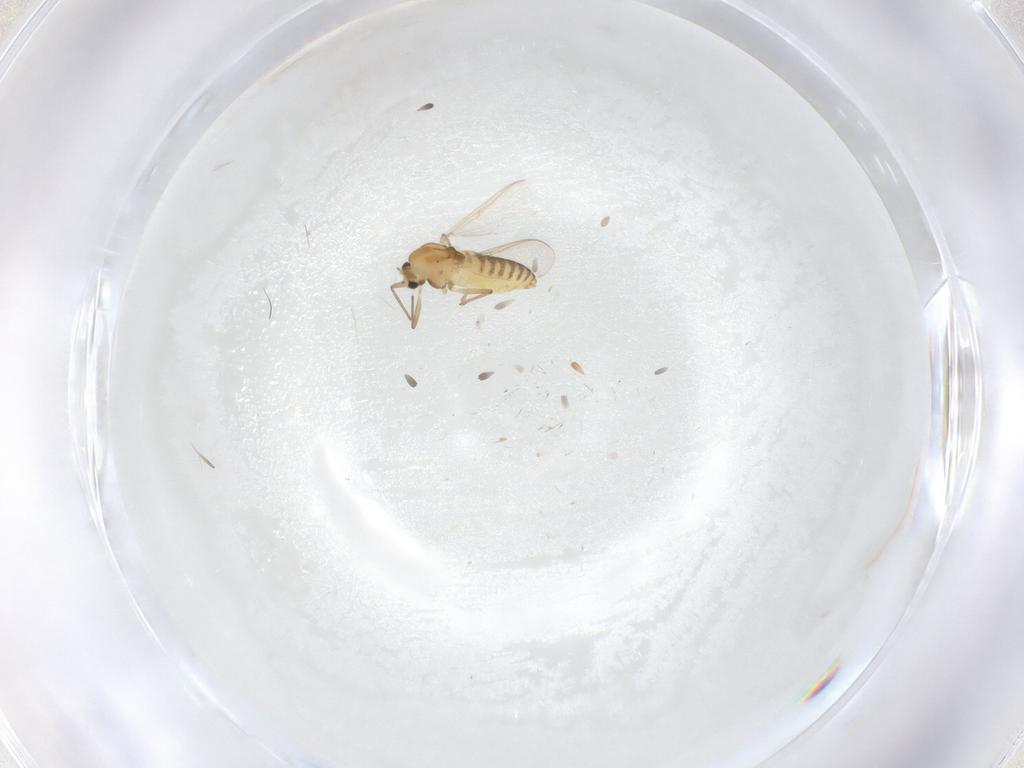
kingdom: Animalia
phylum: Arthropoda
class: Insecta
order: Diptera
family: Chironomidae
